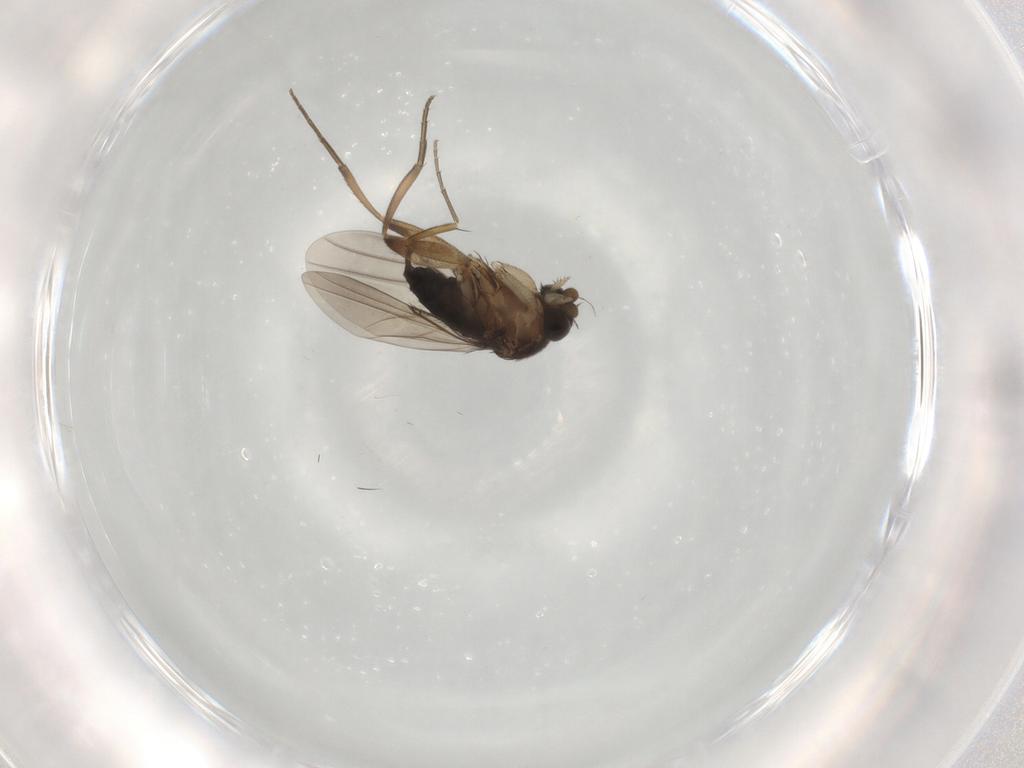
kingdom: Animalia
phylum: Arthropoda
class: Insecta
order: Diptera
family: Phoridae
